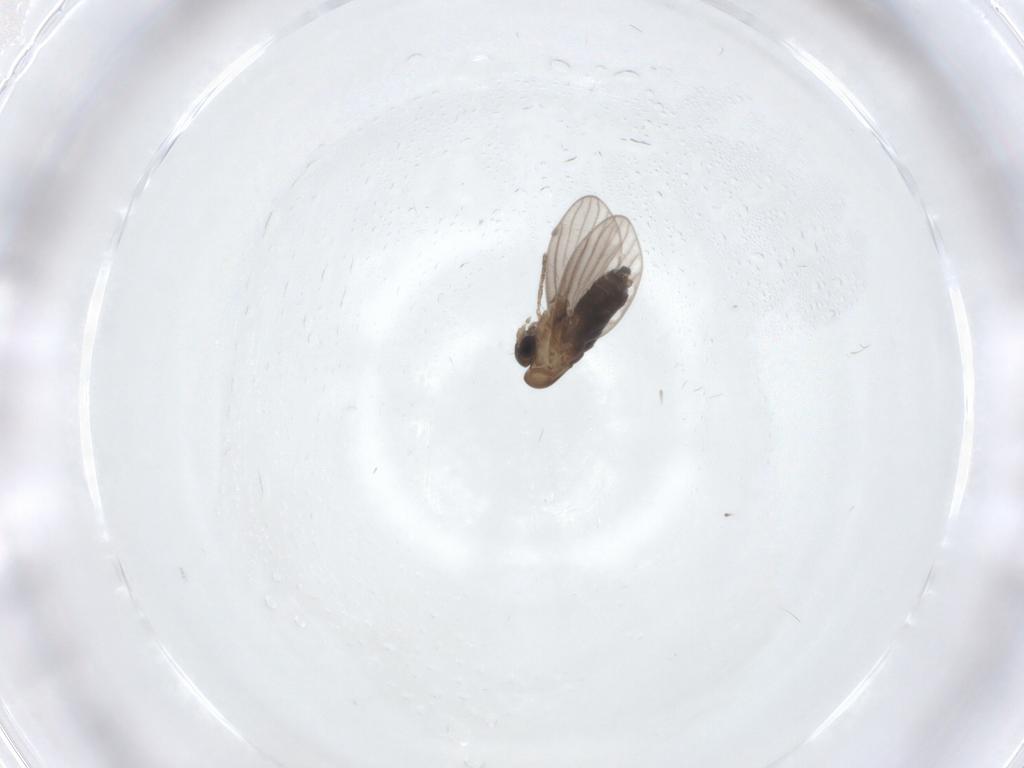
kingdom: Animalia
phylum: Arthropoda
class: Insecta
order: Diptera
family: Psychodidae
